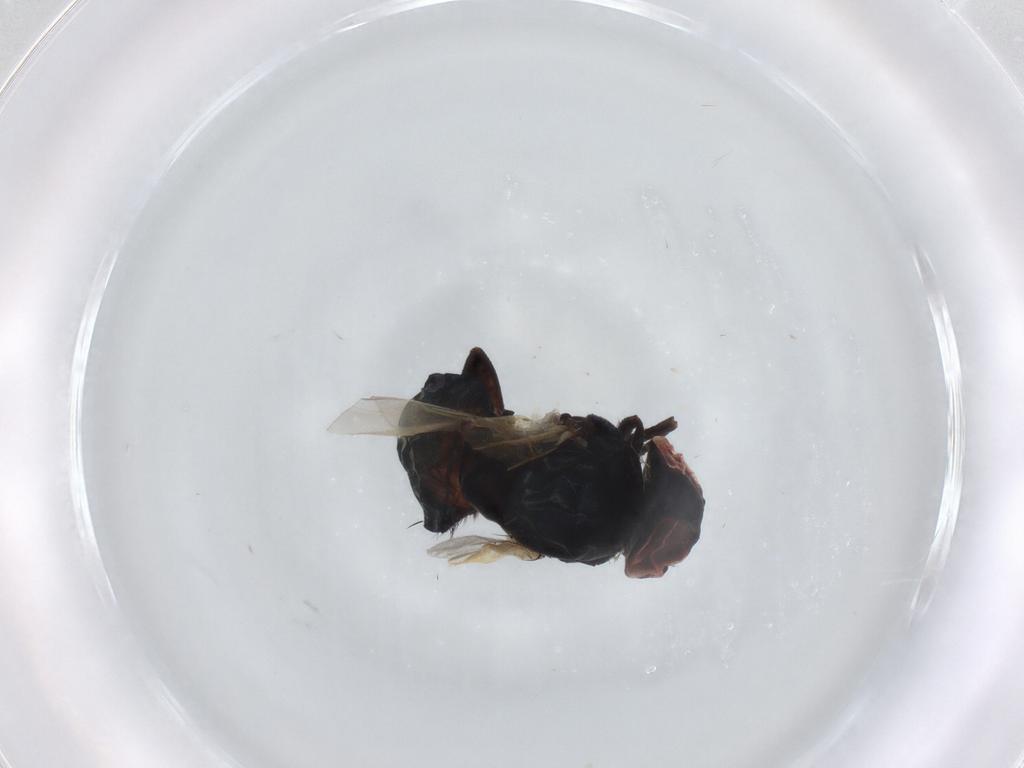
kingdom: Animalia
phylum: Arthropoda
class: Insecta
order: Diptera
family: Lonchaeidae
